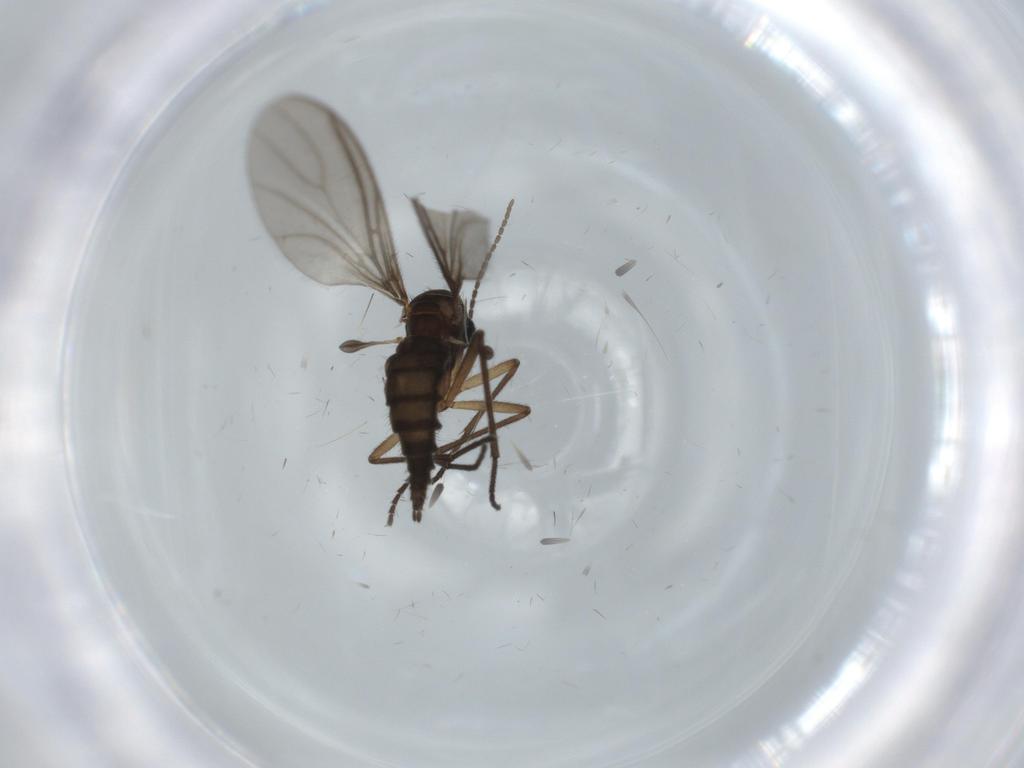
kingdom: Animalia
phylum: Arthropoda
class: Insecta
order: Diptera
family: Sciaridae
